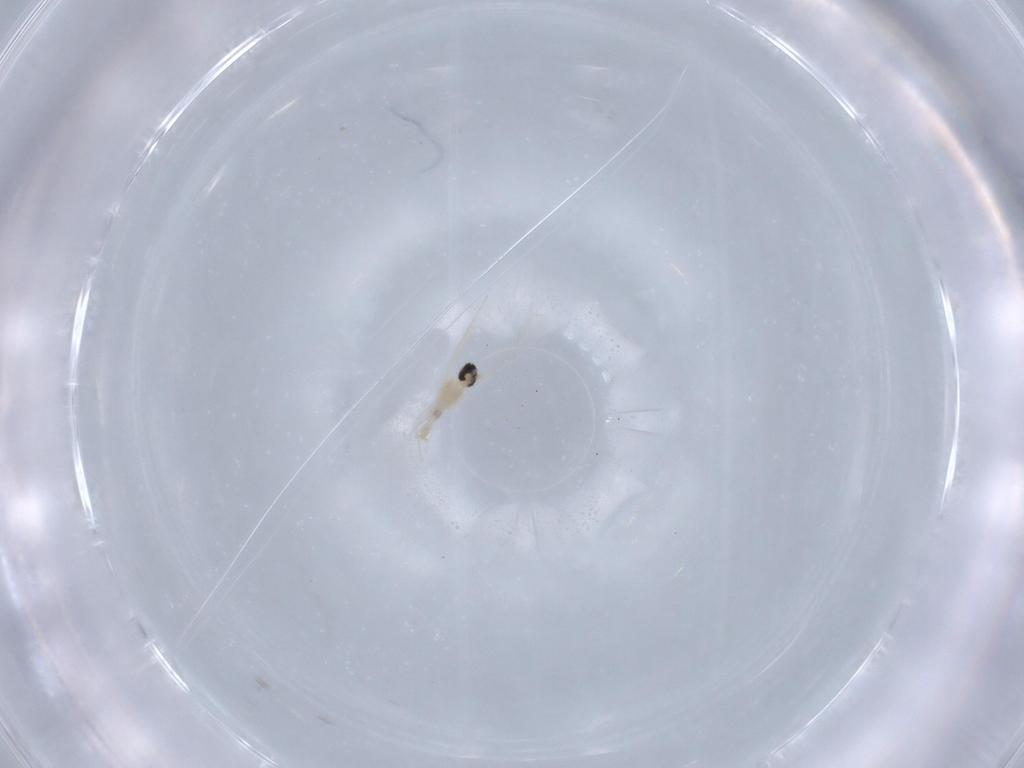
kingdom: Animalia
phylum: Arthropoda
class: Insecta
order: Diptera
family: Cecidomyiidae
